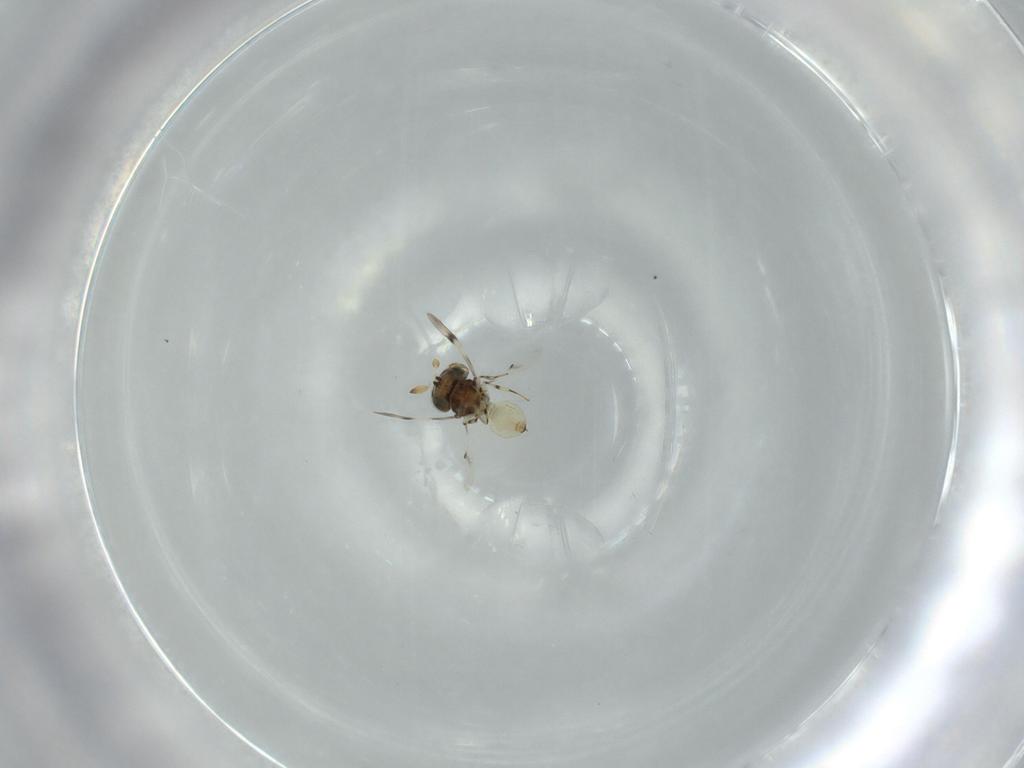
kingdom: Animalia
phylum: Arthropoda
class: Insecta
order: Hymenoptera
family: Scelionidae
